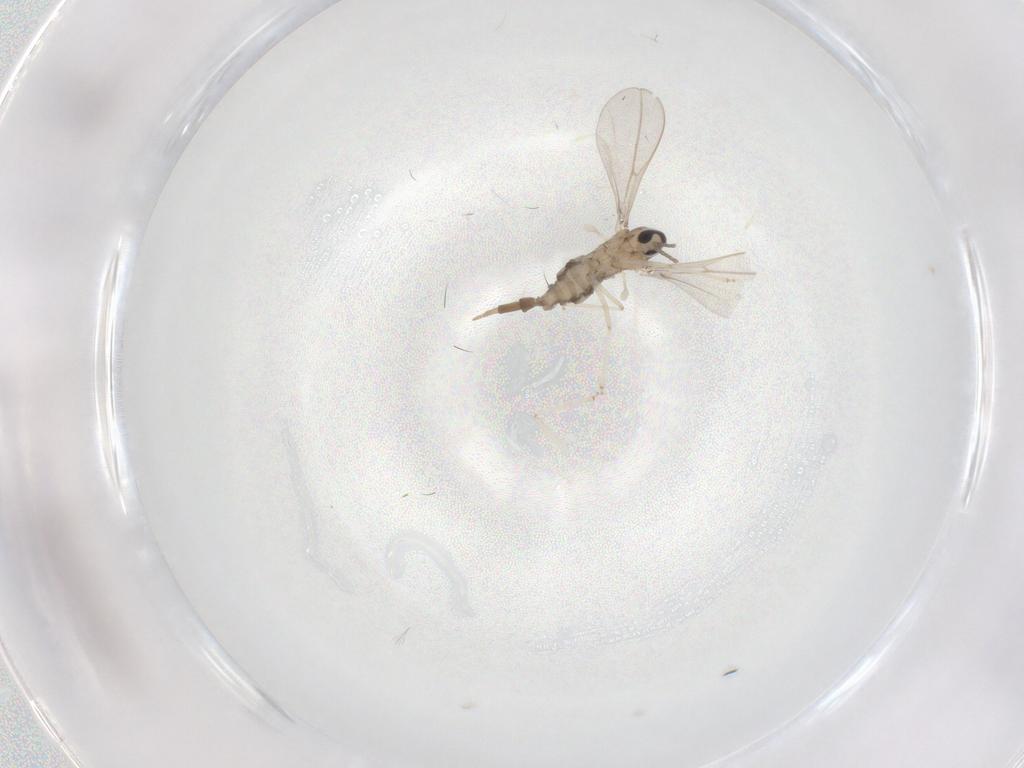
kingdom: Animalia
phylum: Arthropoda
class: Insecta
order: Diptera
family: Cecidomyiidae
